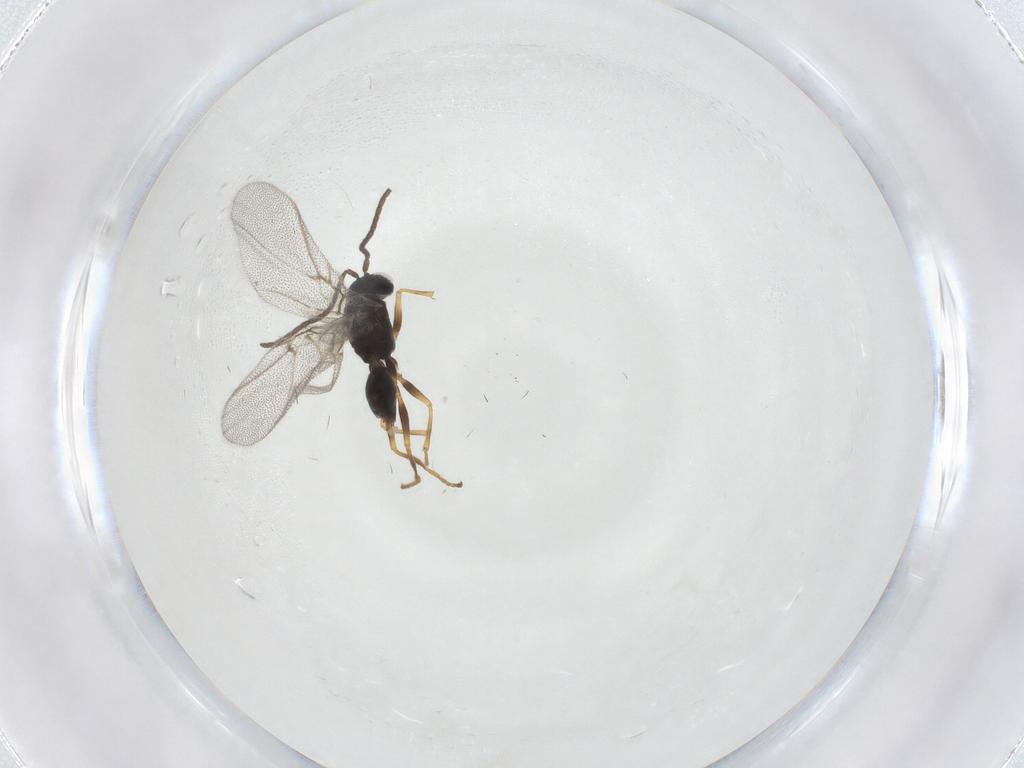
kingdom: Animalia
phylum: Arthropoda
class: Insecta
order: Hymenoptera
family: Cynipidae
